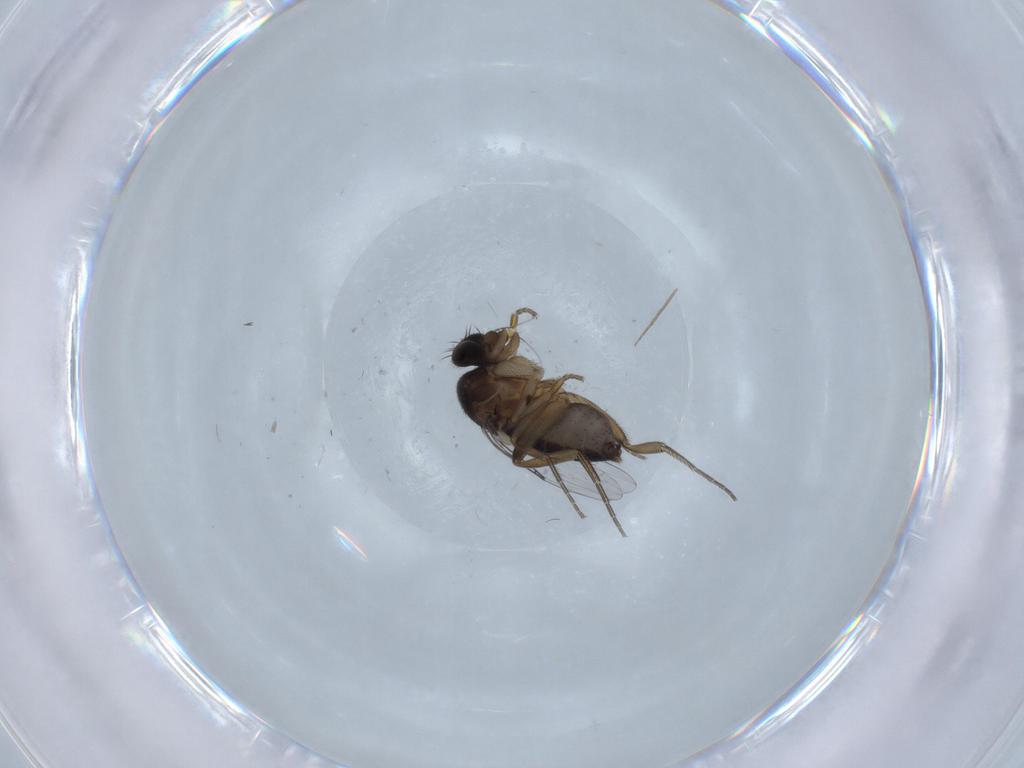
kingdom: Animalia
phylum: Arthropoda
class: Insecta
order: Diptera
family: Phoridae
